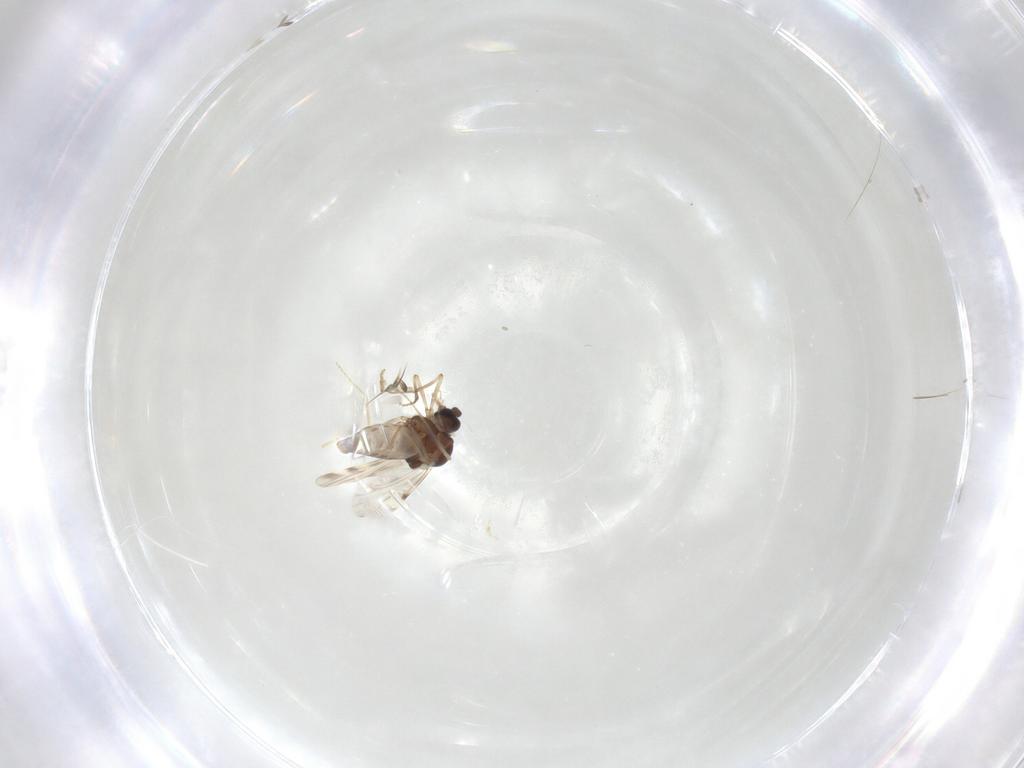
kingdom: Animalia
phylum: Arthropoda
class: Insecta
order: Diptera
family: Ceratopogonidae
